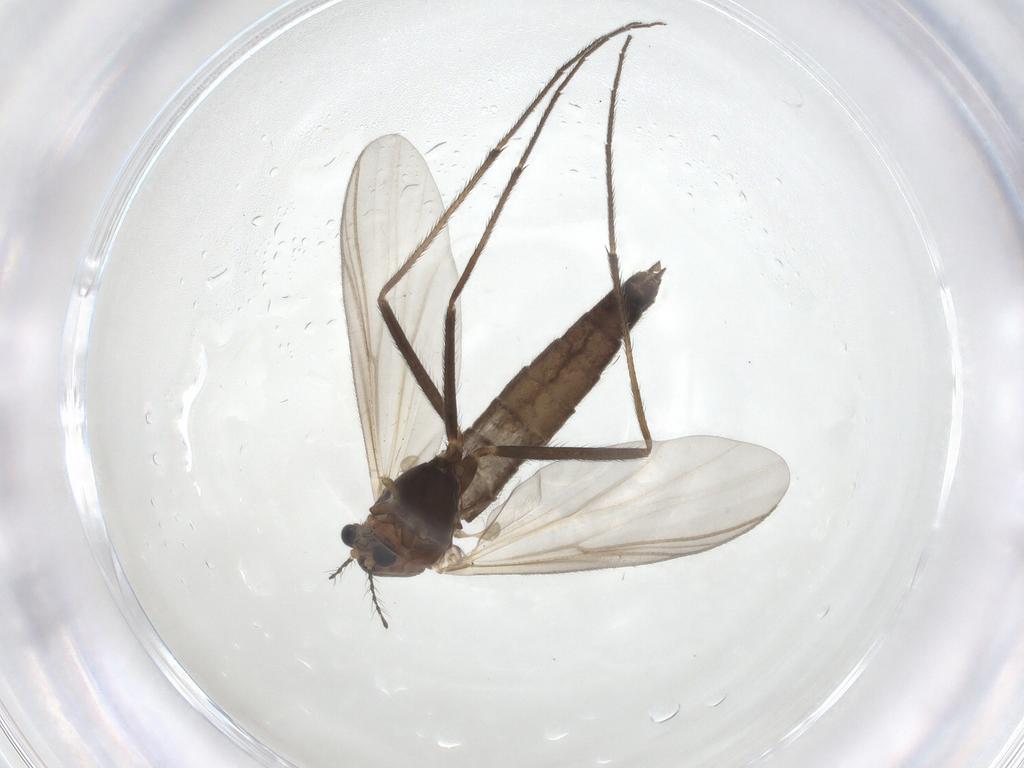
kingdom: Animalia
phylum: Arthropoda
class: Insecta
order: Diptera
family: Chironomidae
